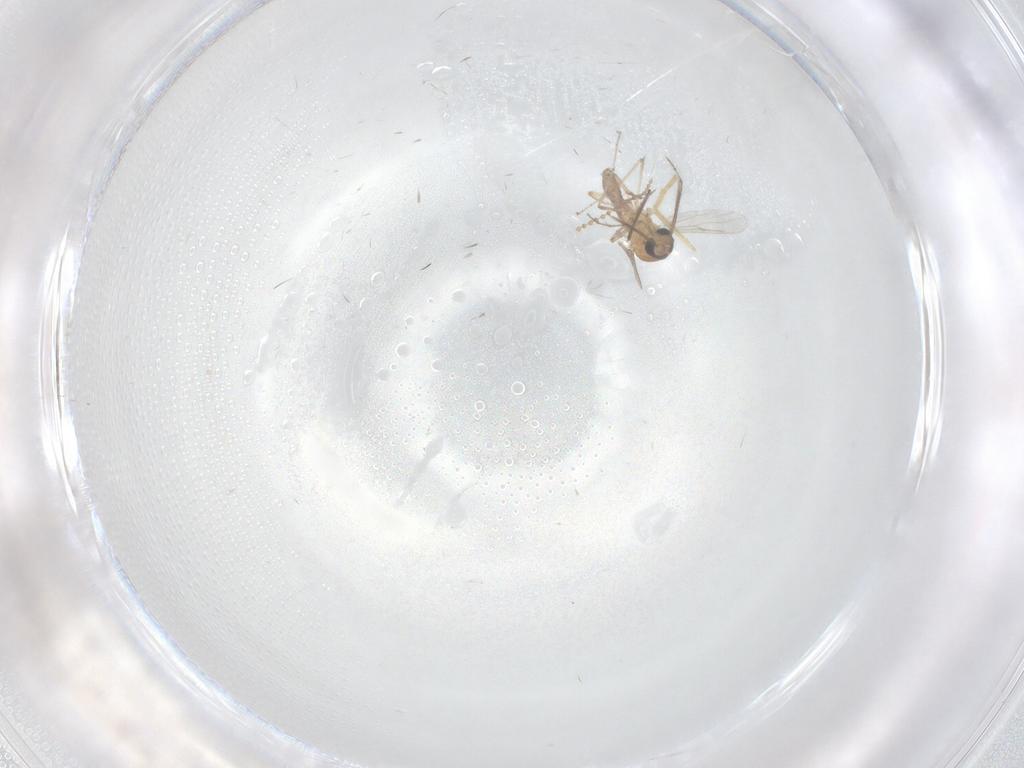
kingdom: Animalia
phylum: Arthropoda
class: Insecta
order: Diptera
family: Chironomidae
